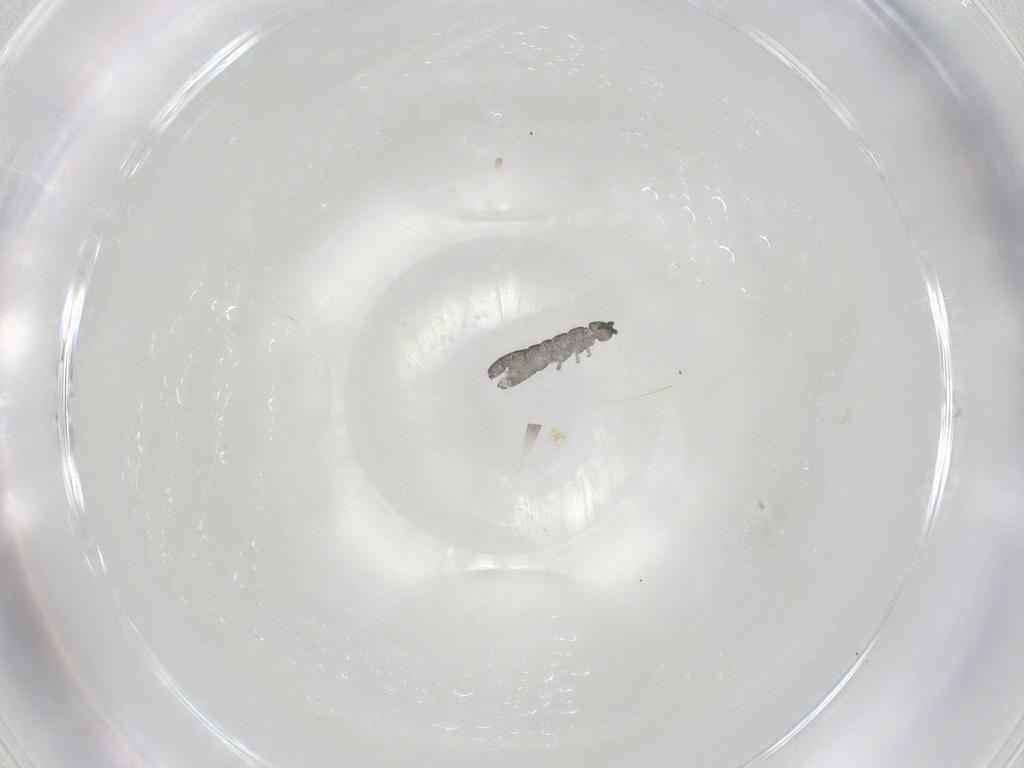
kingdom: Animalia
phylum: Arthropoda
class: Collembola
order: Entomobryomorpha
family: Isotomidae
